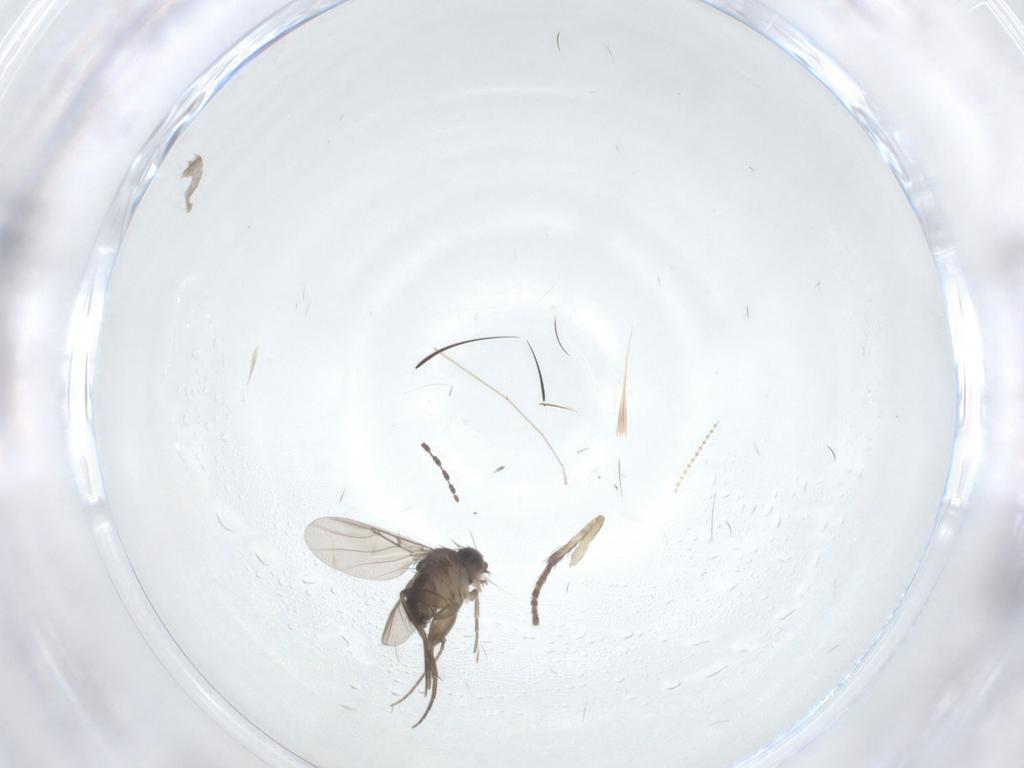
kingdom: Animalia
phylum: Arthropoda
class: Insecta
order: Diptera
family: Phoridae
